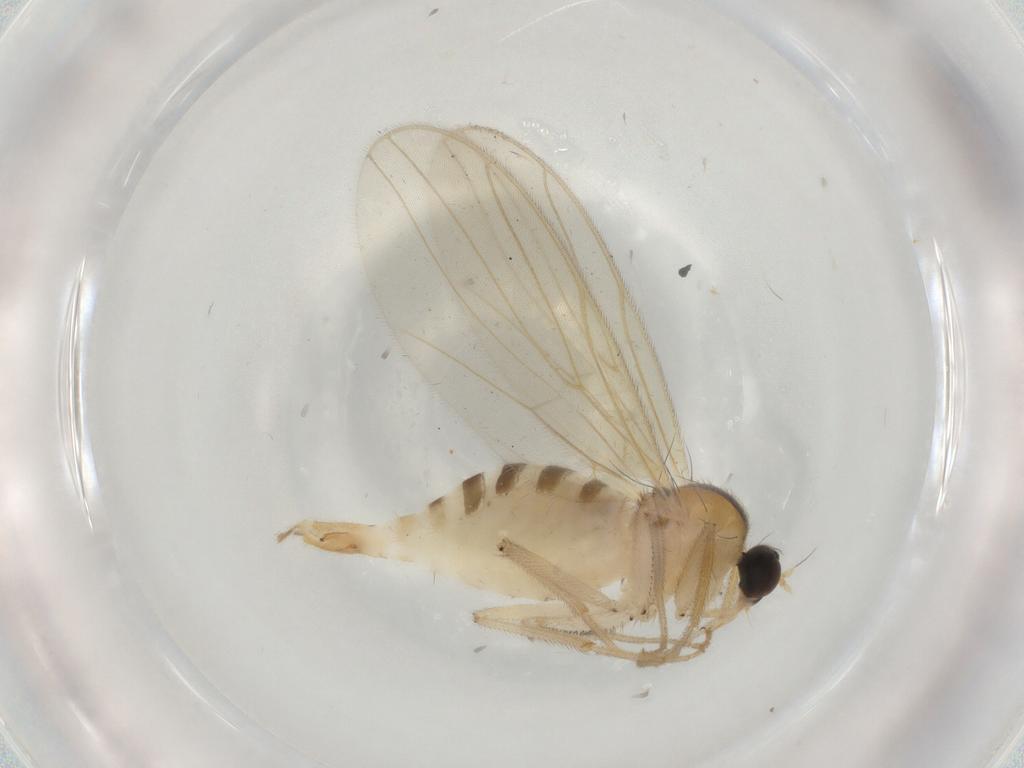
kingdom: Animalia
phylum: Arthropoda
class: Insecta
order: Diptera
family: Hybotidae
